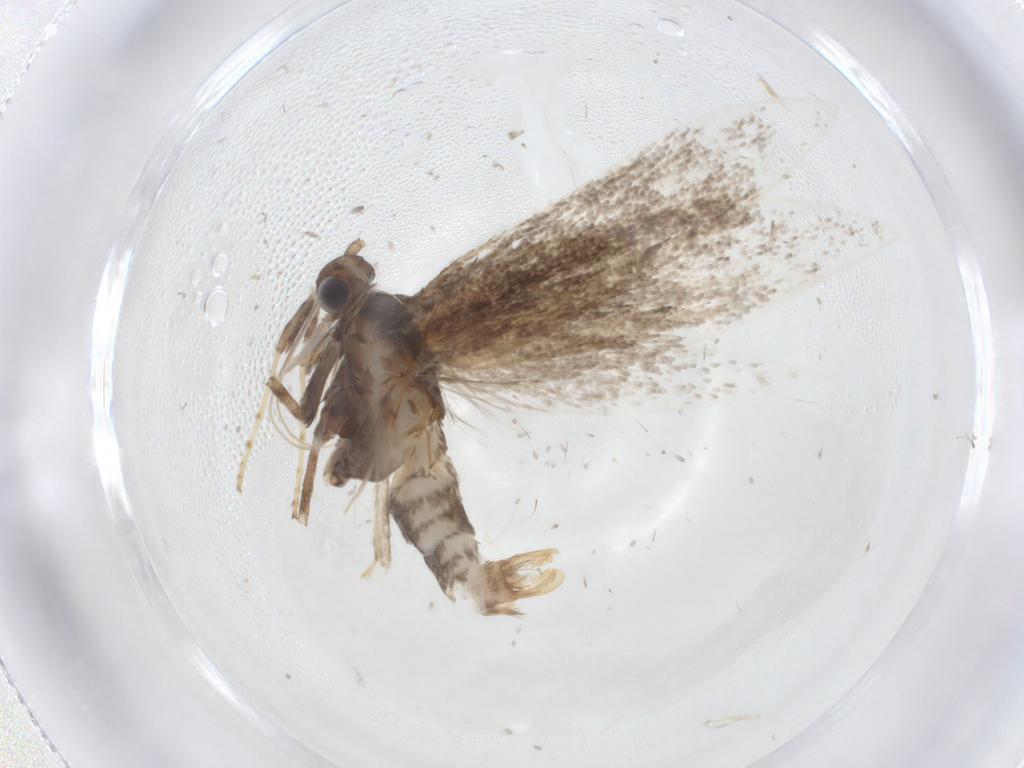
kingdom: Animalia
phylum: Arthropoda
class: Insecta
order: Lepidoptera
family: Gracillariidae
